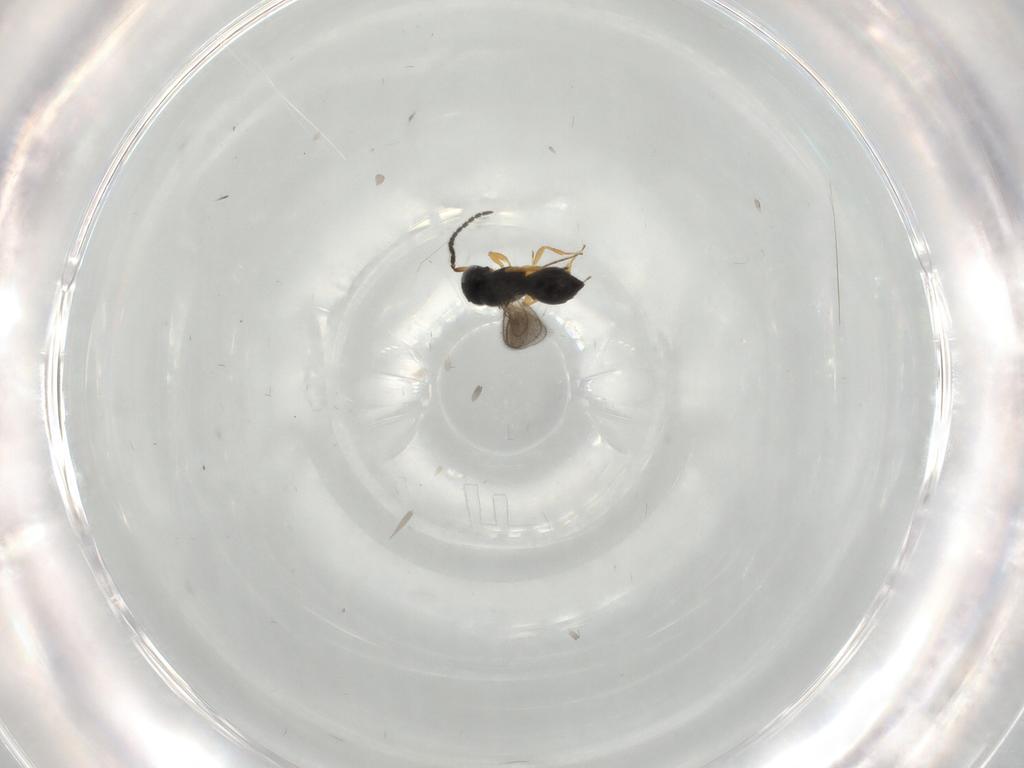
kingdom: Animalia
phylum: Arthropoda
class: Insecta
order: Hymenoptera
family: Scelionidae
